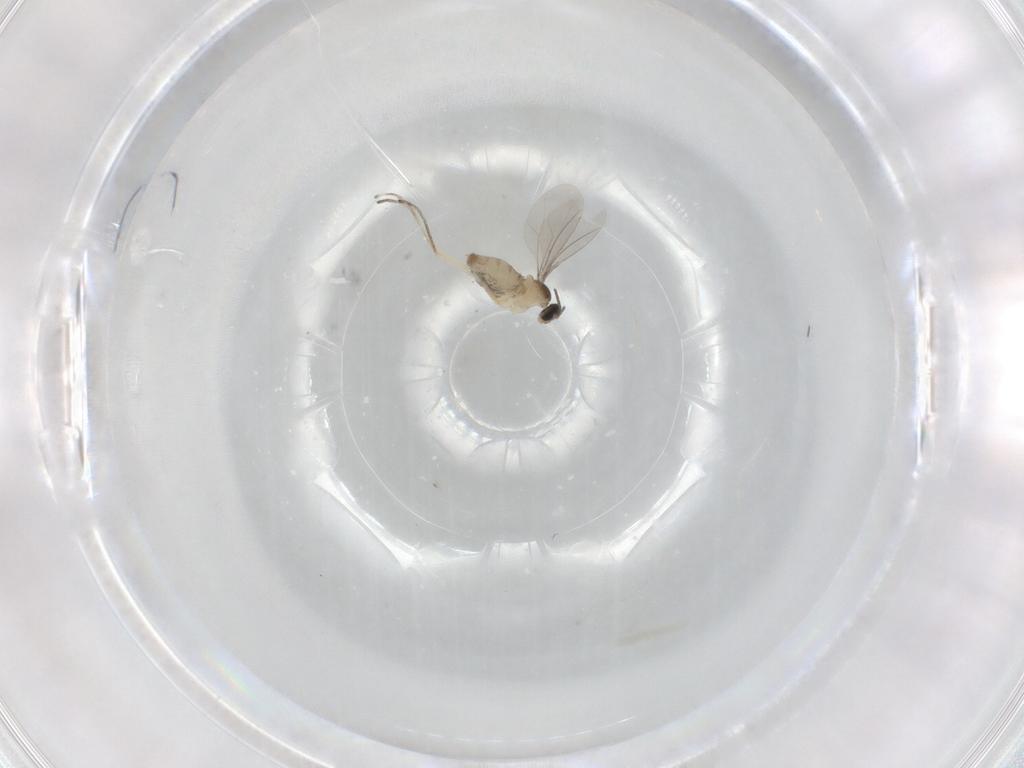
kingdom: Animalia
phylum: Arthropoda
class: Insecta
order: Diptera
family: Cecidomyiidae
